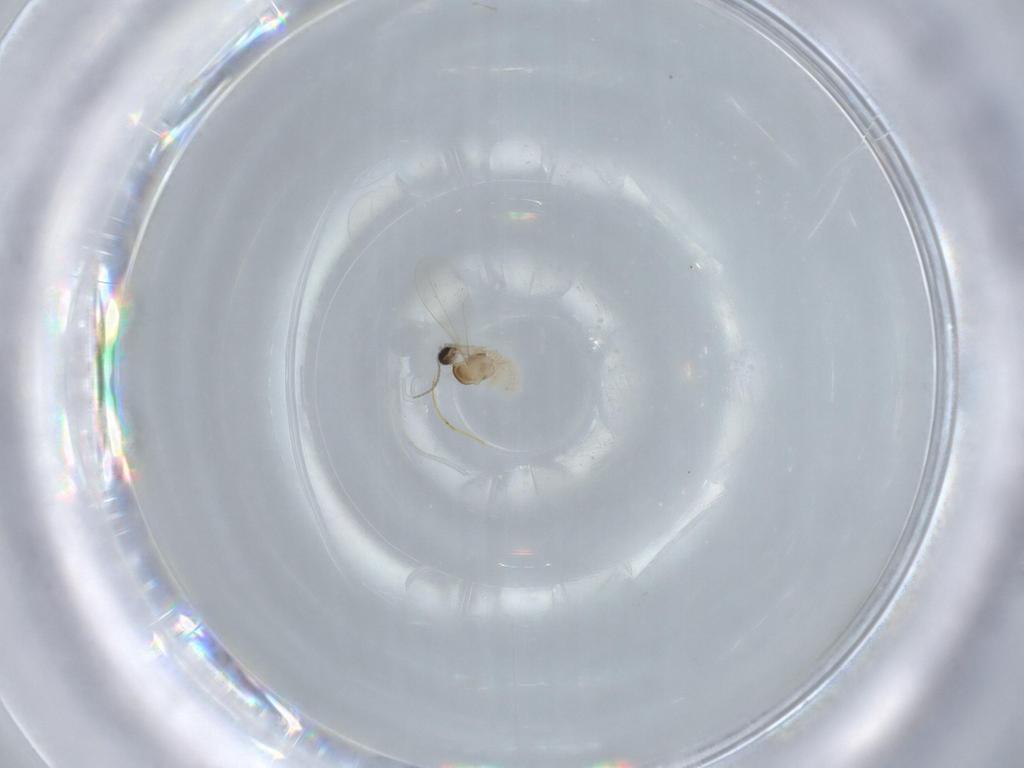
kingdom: Animalia
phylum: Arthropoda
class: Insecta
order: Diptera
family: Cecidomyiidae
